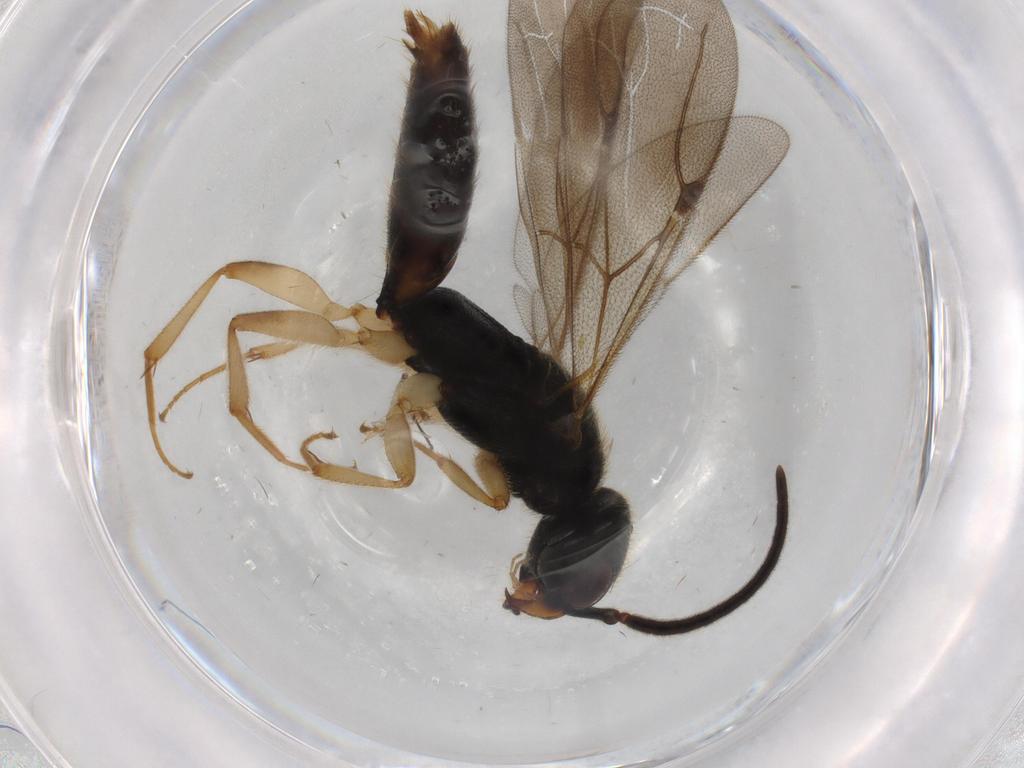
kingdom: Animalia
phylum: Arthropoda
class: Insecta
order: Hymenoptera
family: Bethylidae
